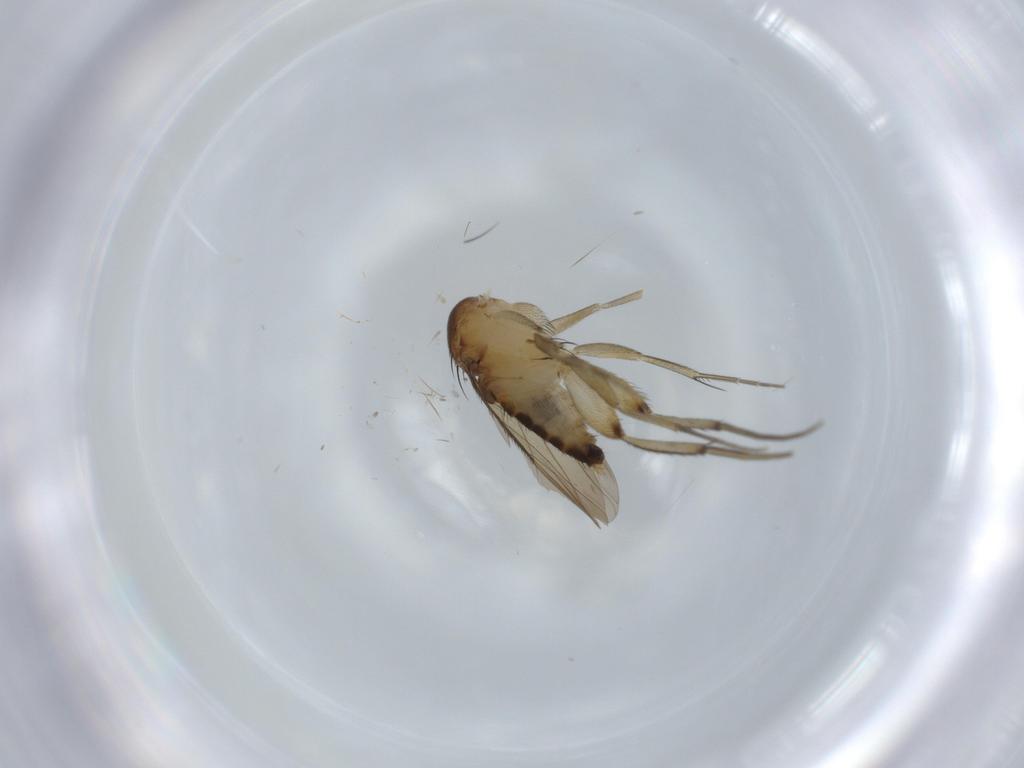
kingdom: Animalia
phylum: Arthropoda
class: Insecta
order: Diptera
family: Phoridae
